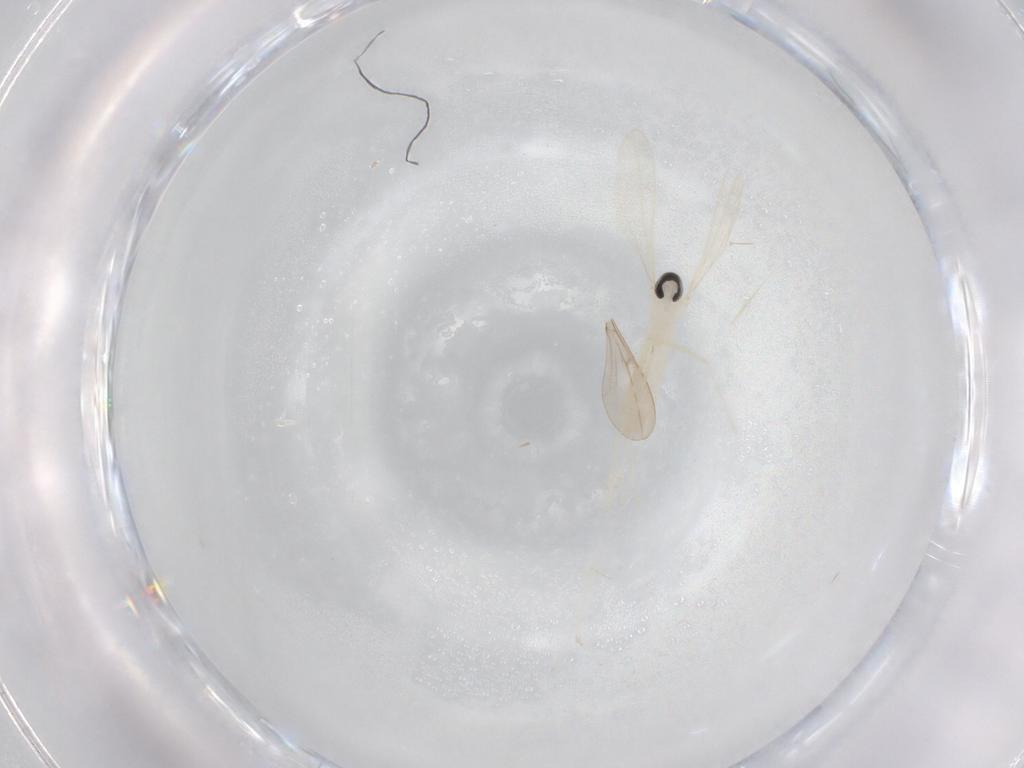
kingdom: Animalia
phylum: Arthropoda
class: Insecta
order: Diptera
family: Cecidomyiidae
